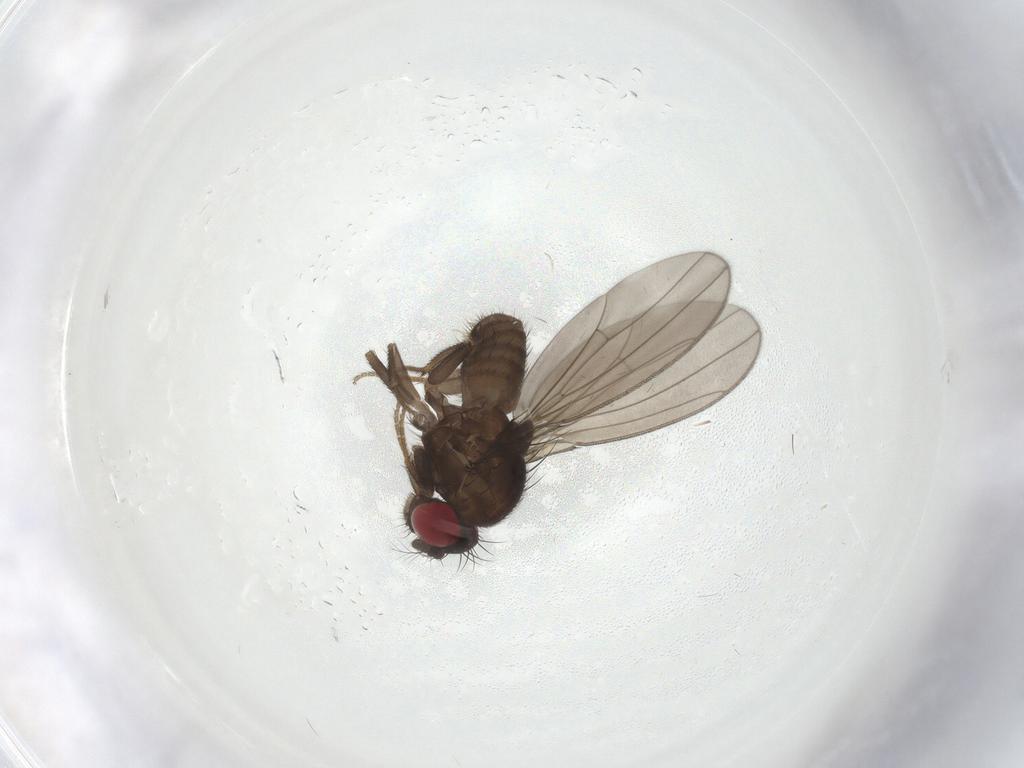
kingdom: Animalia
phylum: Arthropoda
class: Insecta
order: Diptera
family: Drosophilidae
